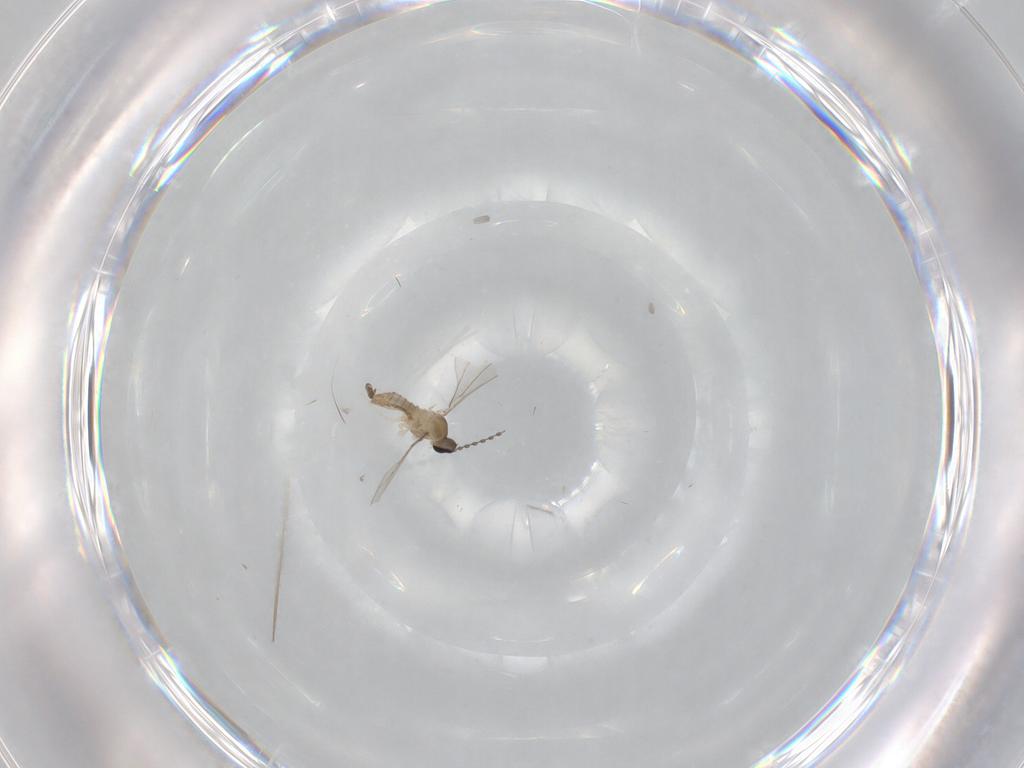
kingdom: Animalia
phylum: Arthropoda
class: Insecta
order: Diptera
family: Cecidomyiidae
